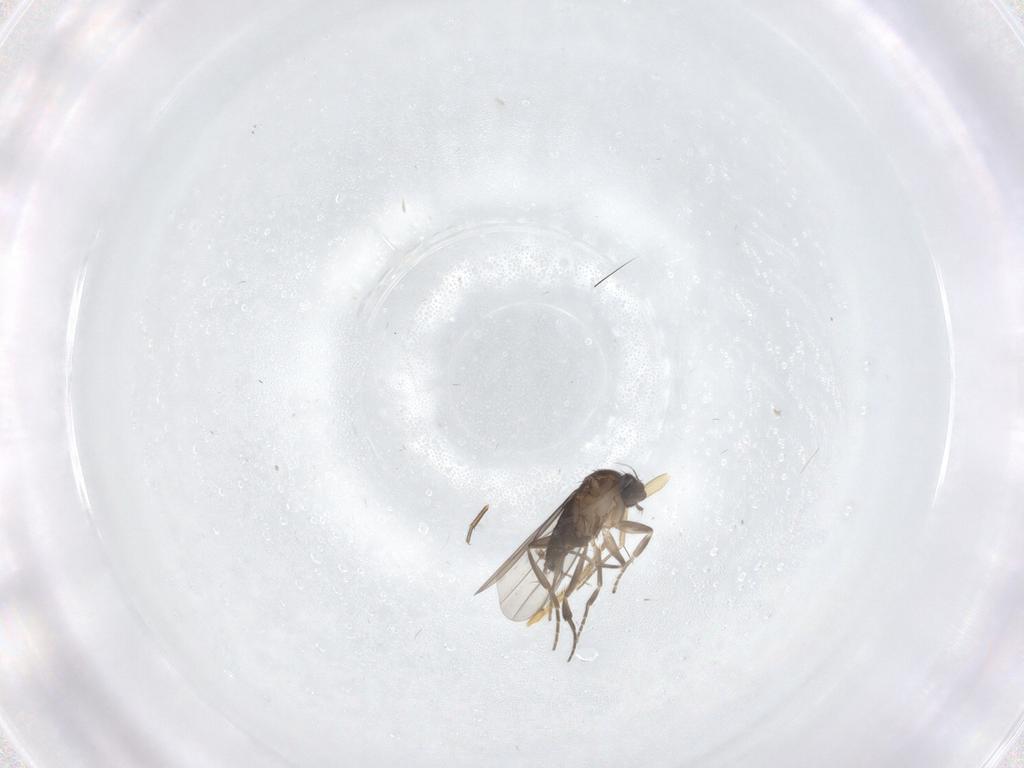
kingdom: Animalia
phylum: Arthropoda
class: Insecta
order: Diptera
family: Phoridae
